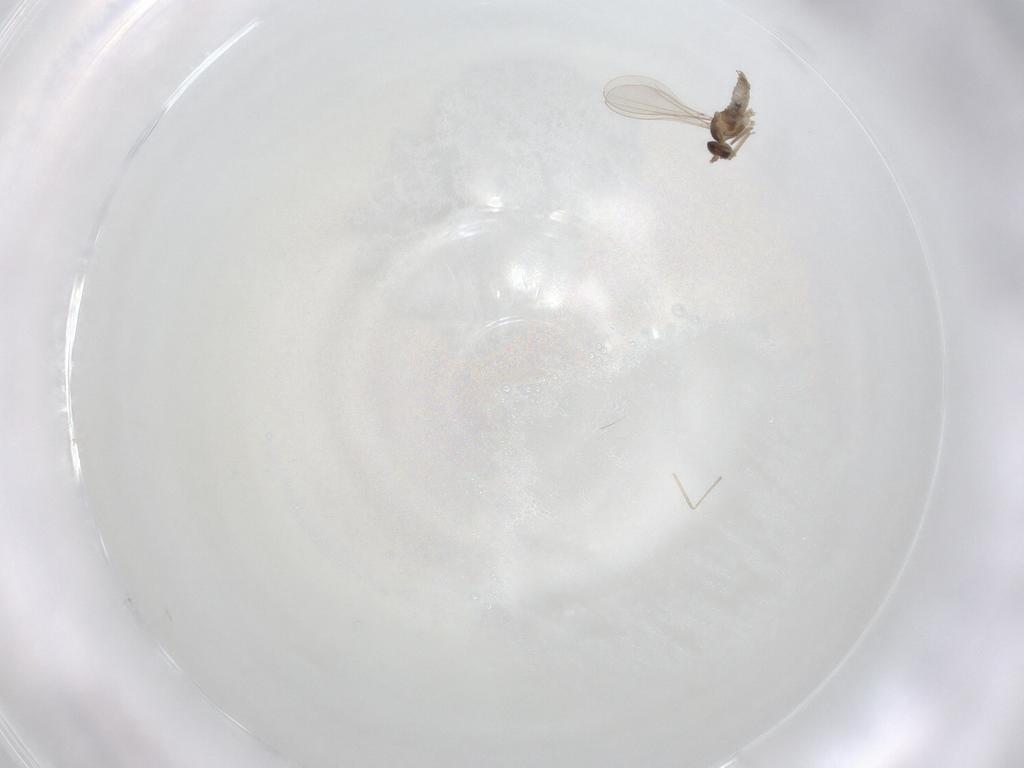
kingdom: Animalia
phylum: Arthropoda
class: Insecta
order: Diptera
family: Cecidomyiidae
